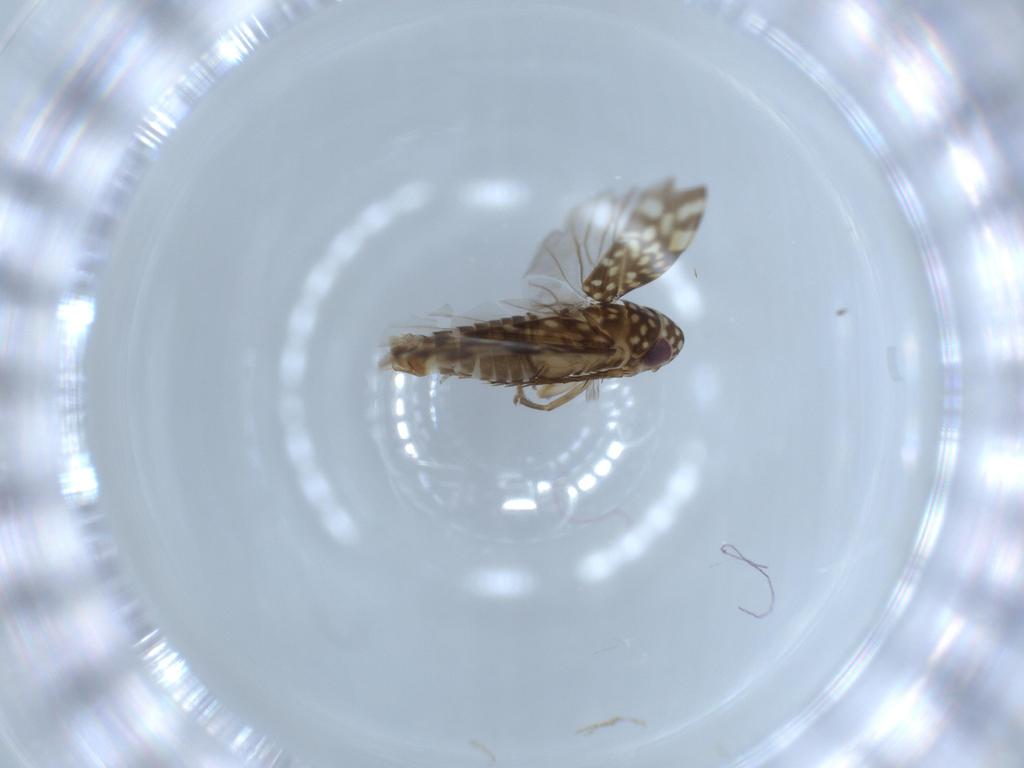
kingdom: Animalia
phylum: Arthropoda
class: Insecta
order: Hemiptera
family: Cicadellidae
